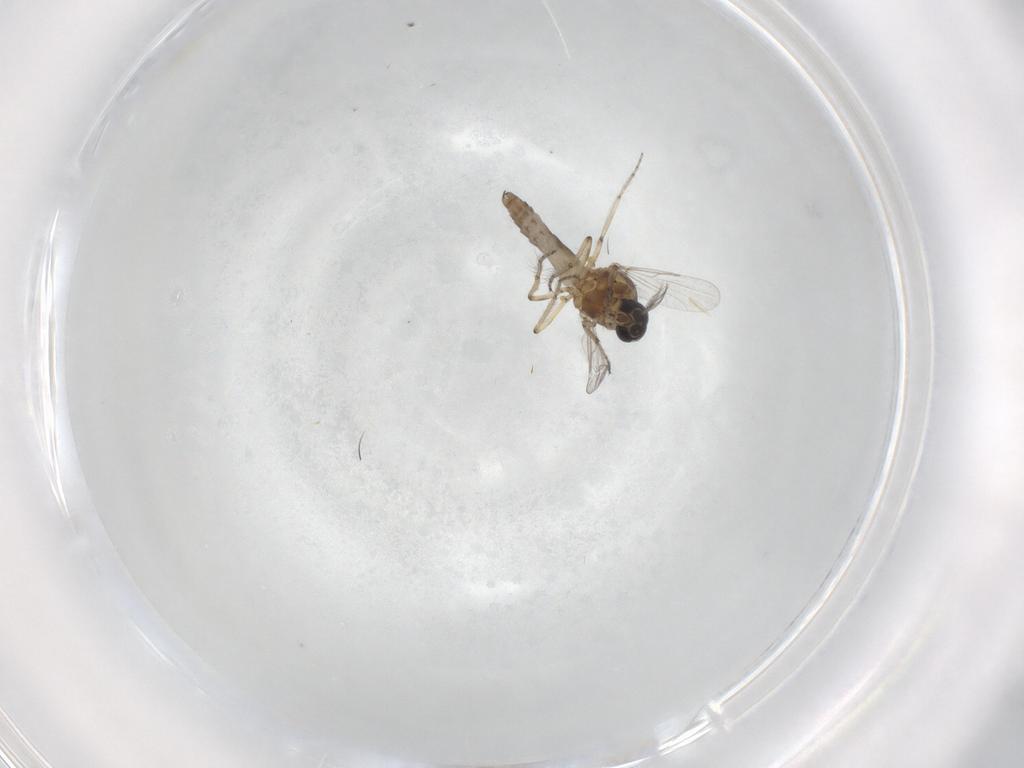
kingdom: Animalia
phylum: Arthropoda
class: Insecta
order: Diptera
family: Ceratopogonidae
